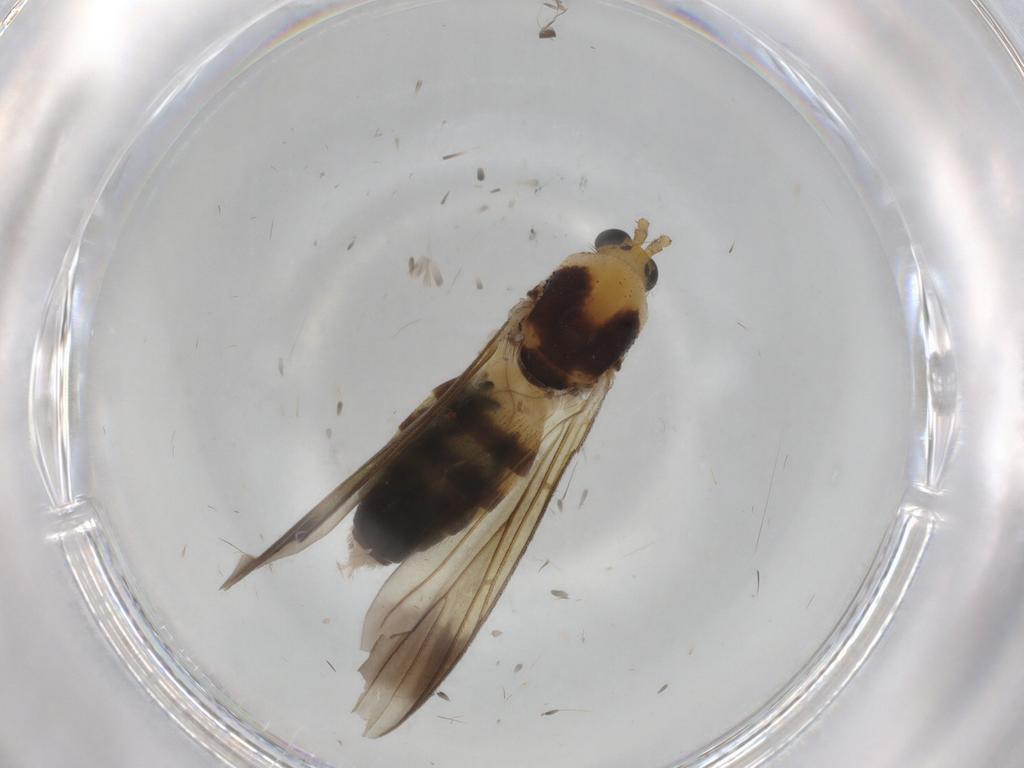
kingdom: Animalia
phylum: Arthropoda
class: Insecta
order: Diptera
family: Mycetophilidae
